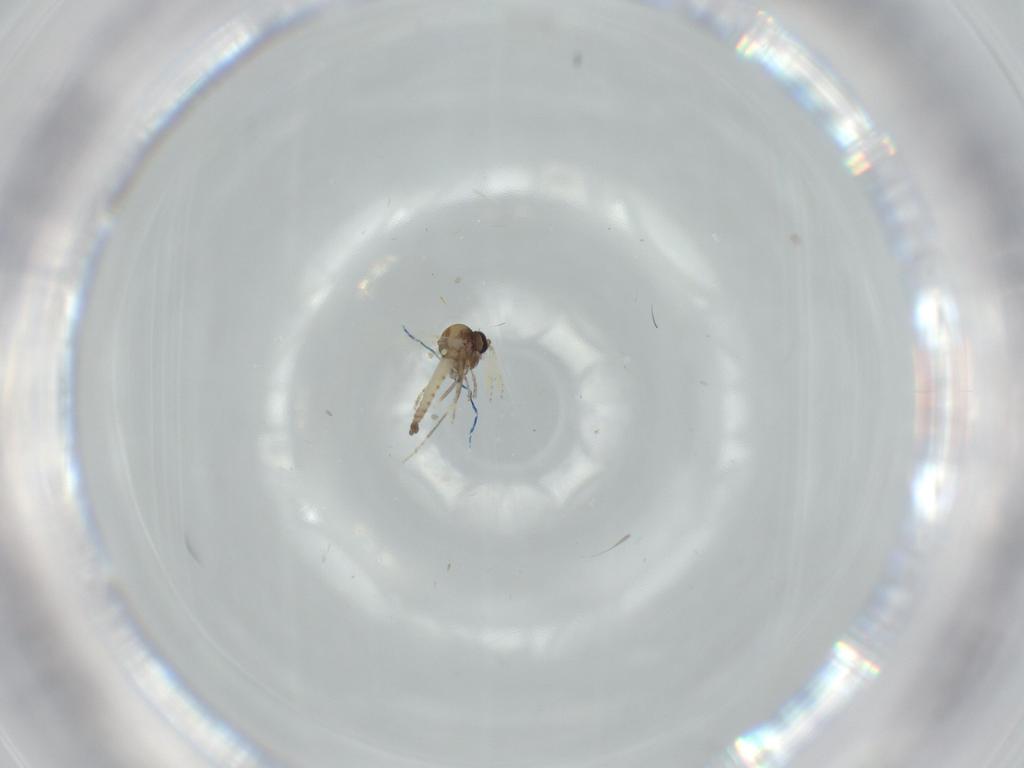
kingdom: Animalia
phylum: Arthropoda
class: Insecta
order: Diptera
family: Ceratopogonidae
